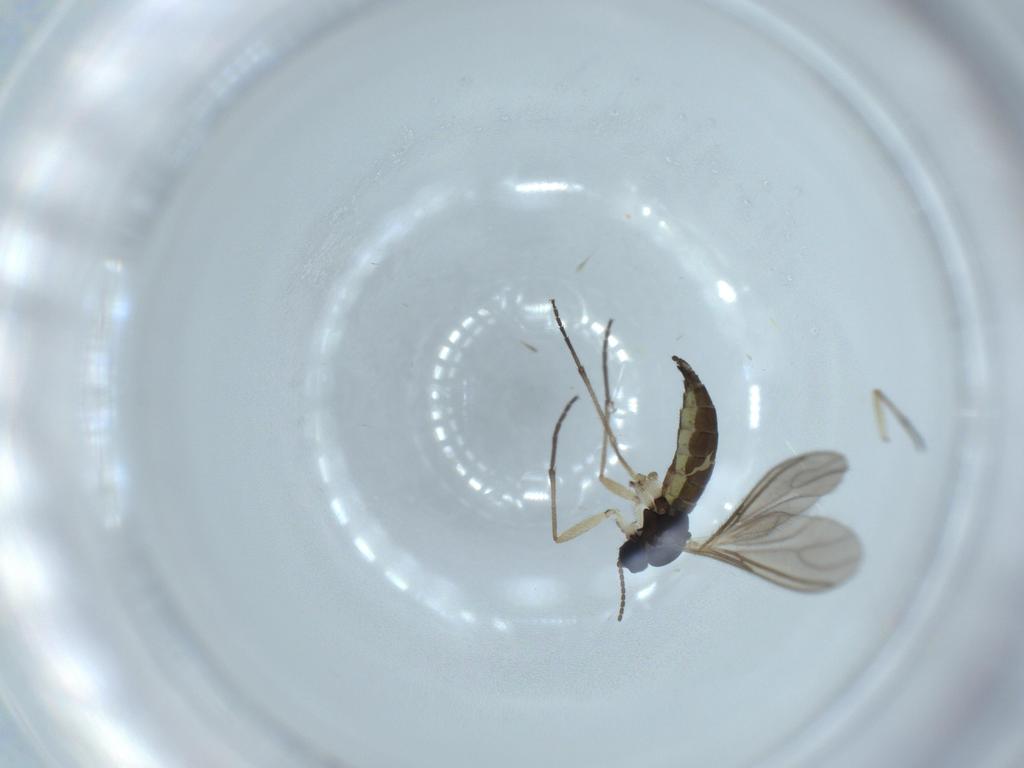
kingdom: Animalia
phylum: Arthropoda
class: Insecta
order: Diptera
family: Sciaridae
